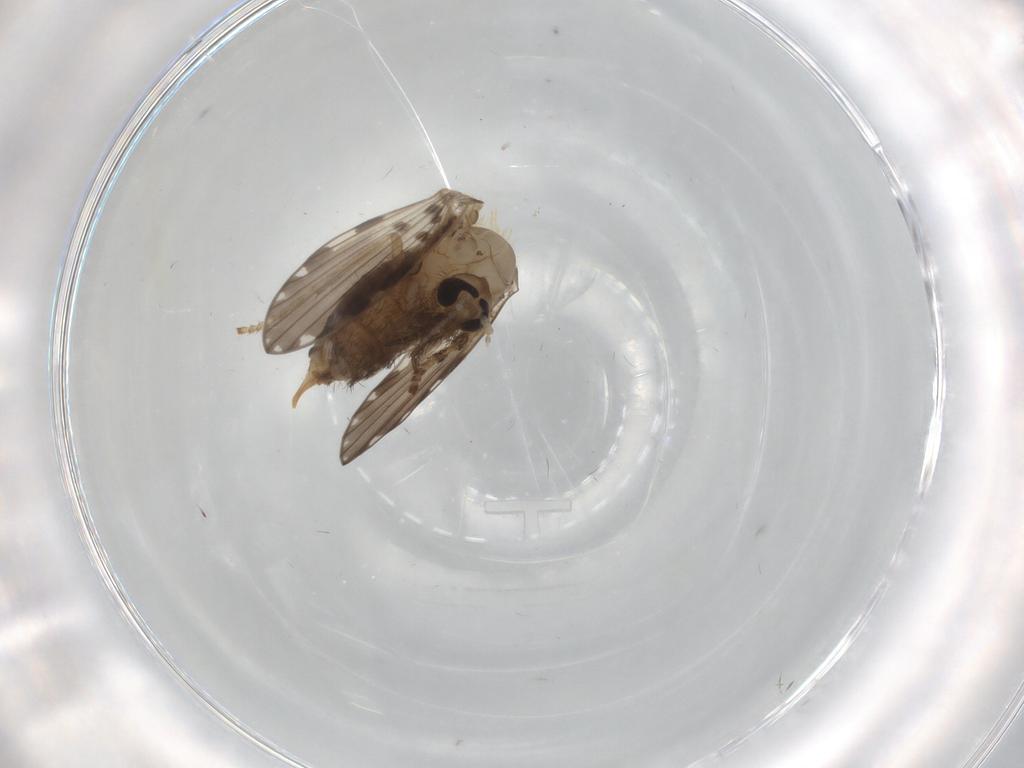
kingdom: Animalia
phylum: Arthropoda
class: Insecta
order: Diptera
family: Psychodidae
